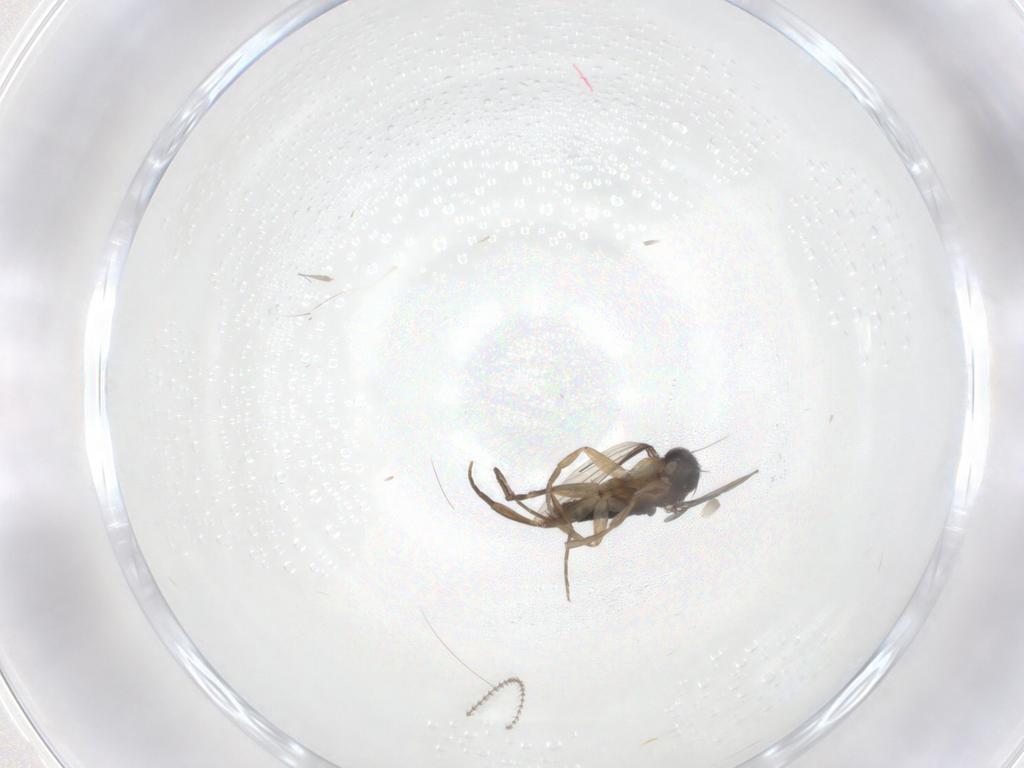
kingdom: Animalia
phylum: Arthropoda
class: Insecta
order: Diptera
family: Phoridae
